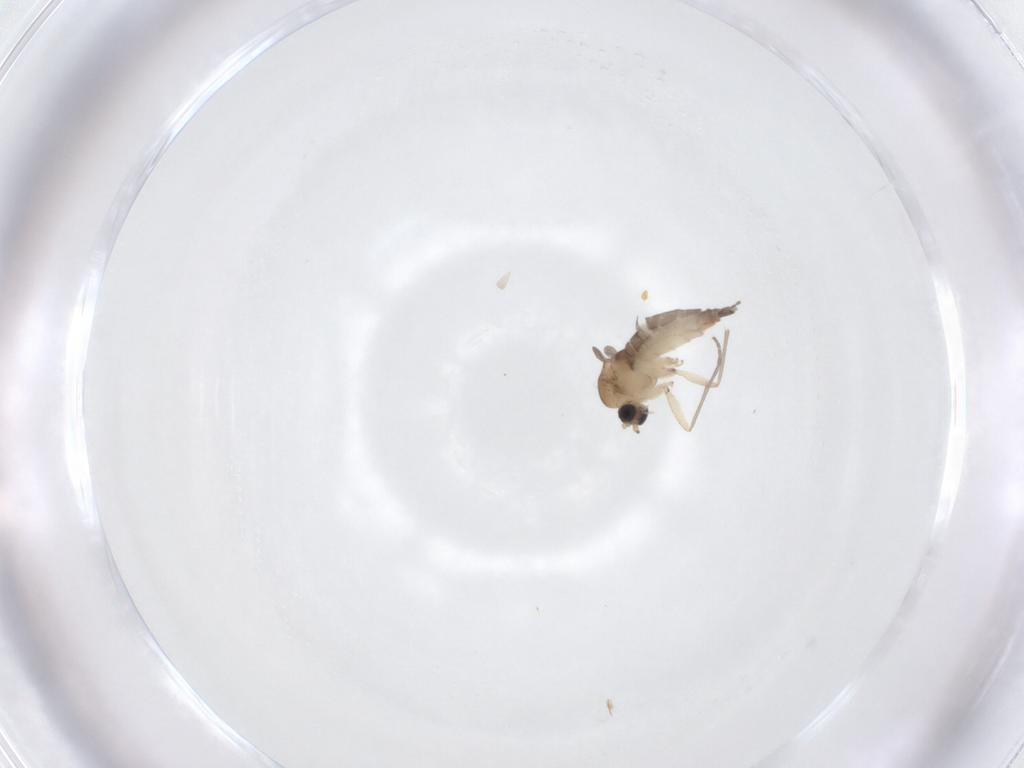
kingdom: Animalia
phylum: Arthropoda
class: Insecta
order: Diptera
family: Sciaridae
